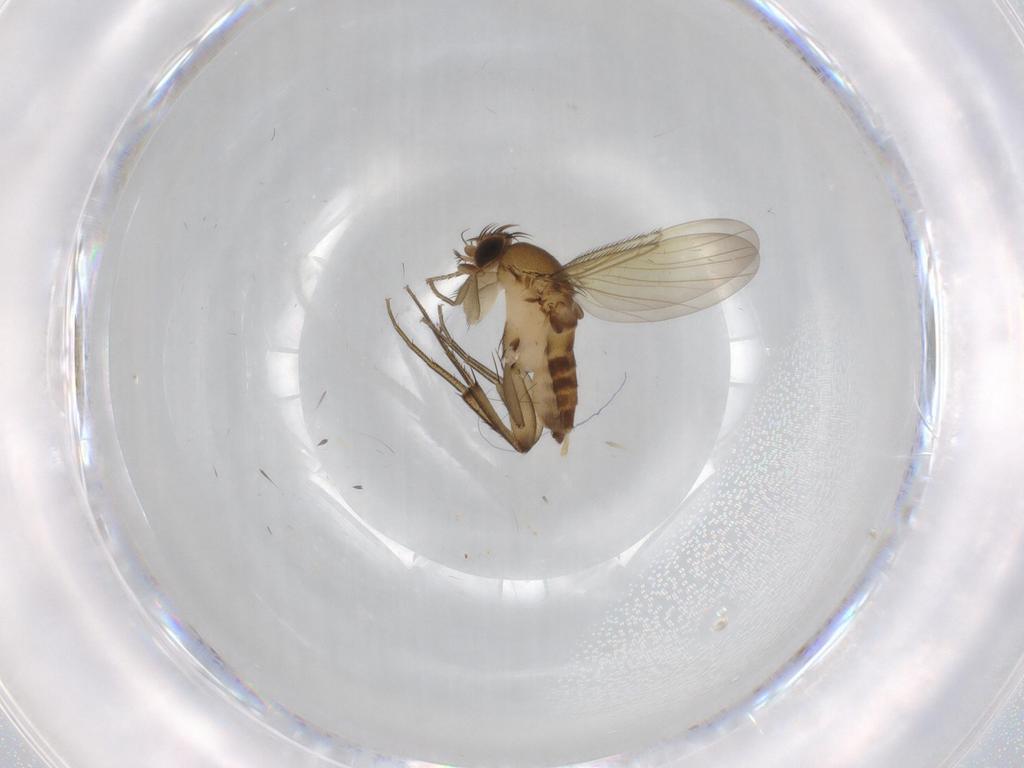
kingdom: Animalia
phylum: Arthropoda
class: Insecta
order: Diptera
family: Phoridae
